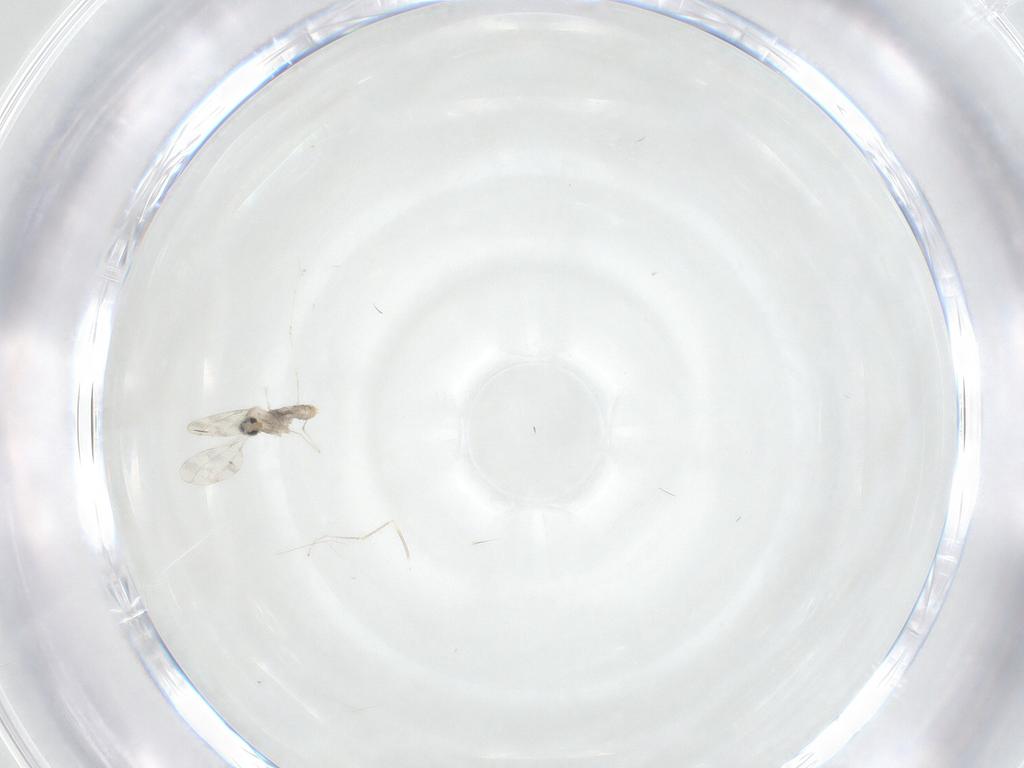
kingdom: Animalia
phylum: Arthropoda
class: Insecta
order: Diptera
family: Cecidomyiidae
